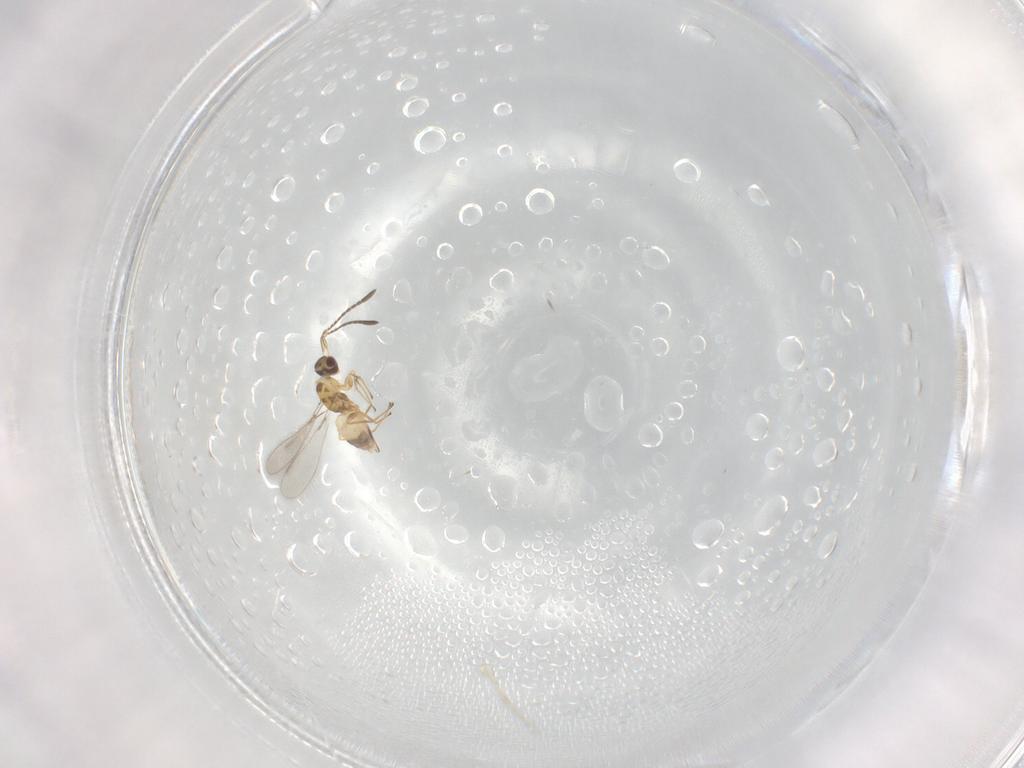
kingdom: Animalia
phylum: Arthropoda
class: Insecta
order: Hymenoptera
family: Mymaridae
